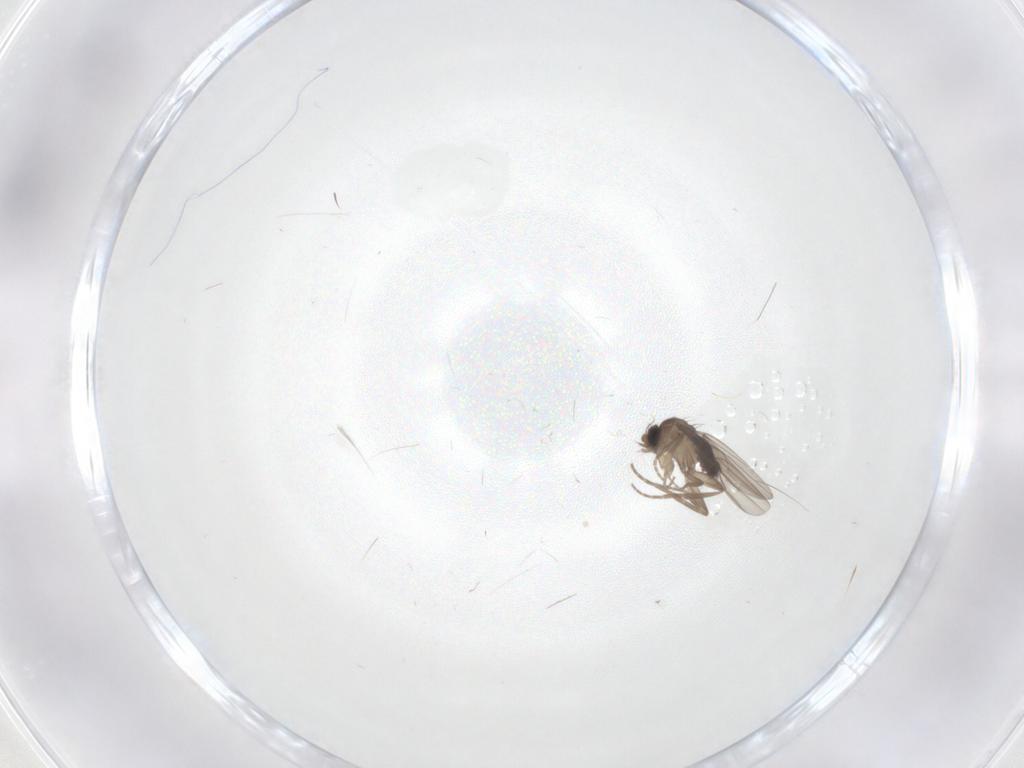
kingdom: Animalia
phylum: Arthropoda
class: Insecta
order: Diptera
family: Phoridae
